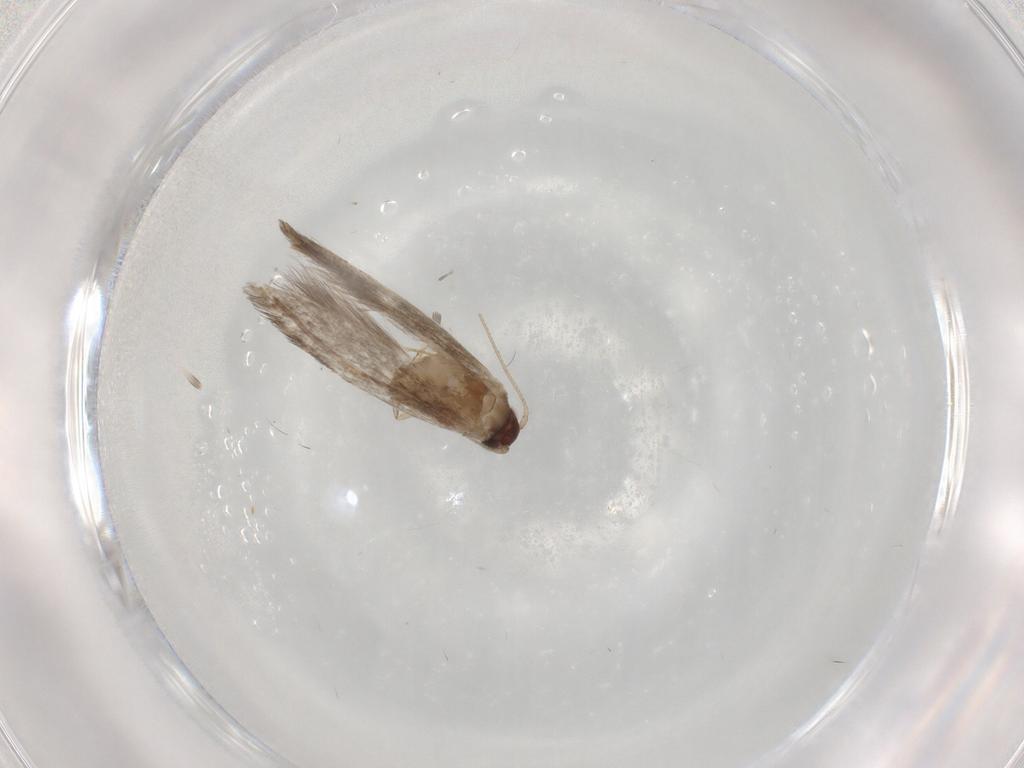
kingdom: Animalia
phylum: Arthropoda
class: Insecta
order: Lepidoptera
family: Tineidae
